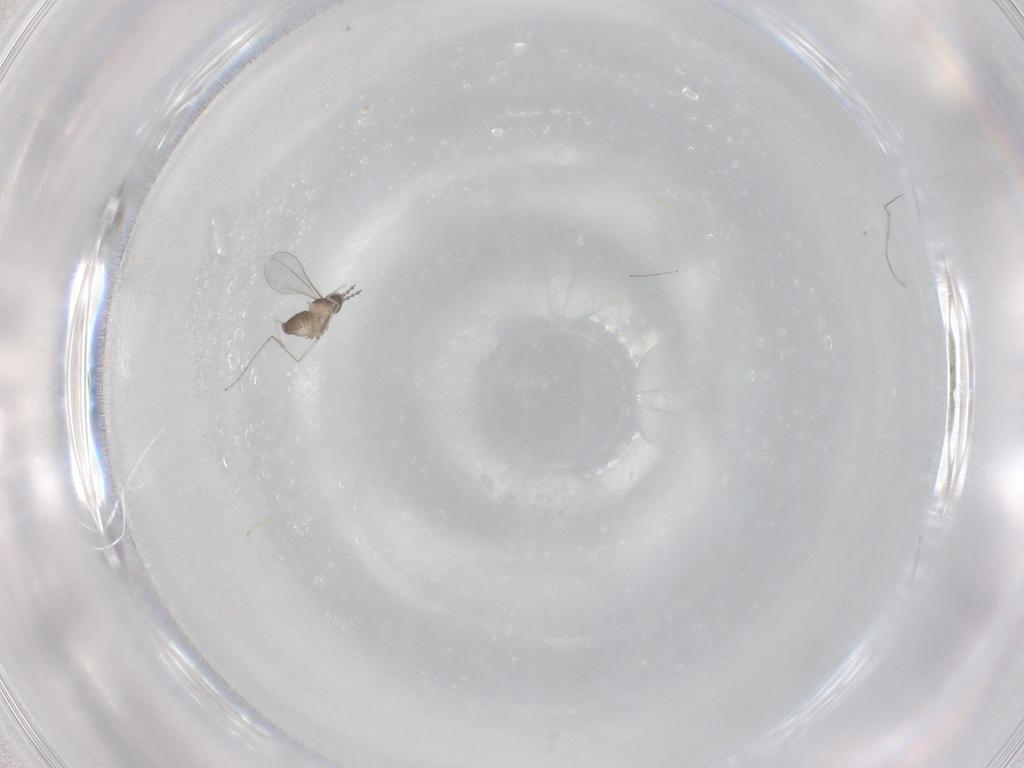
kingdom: Animalia
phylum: Arthropoda
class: Insecta
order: Diptera
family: Cecidomyiidae
